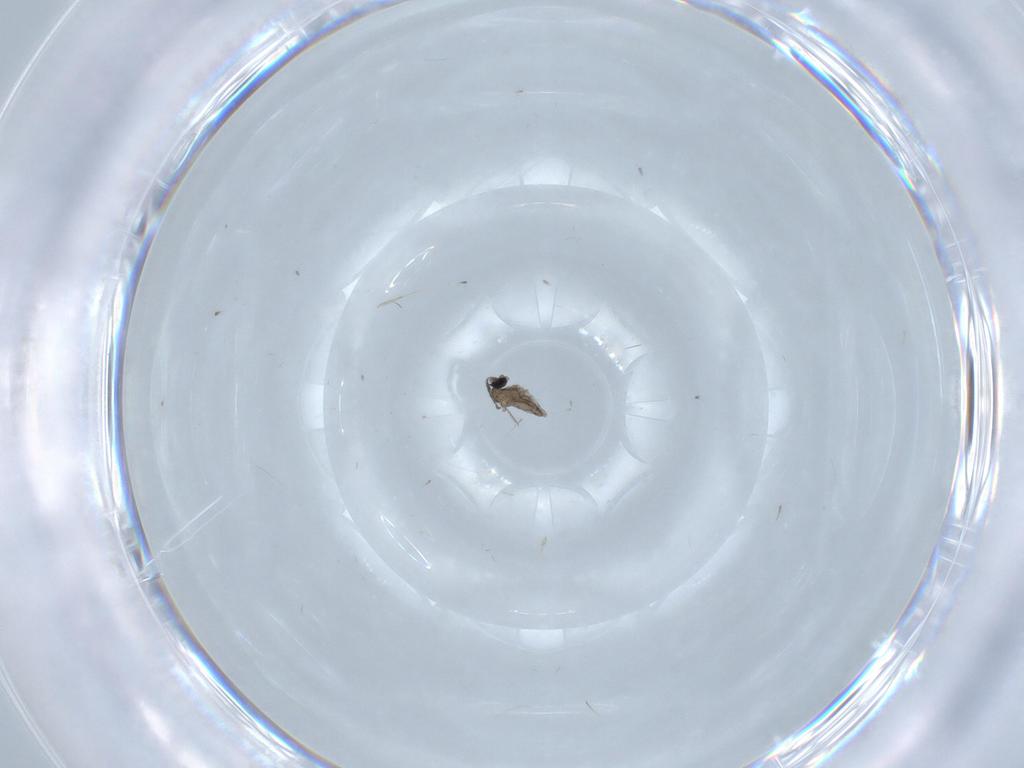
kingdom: Animalia
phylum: Arthropoda
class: Insecta
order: Diptera
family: Cecidomyiidae
